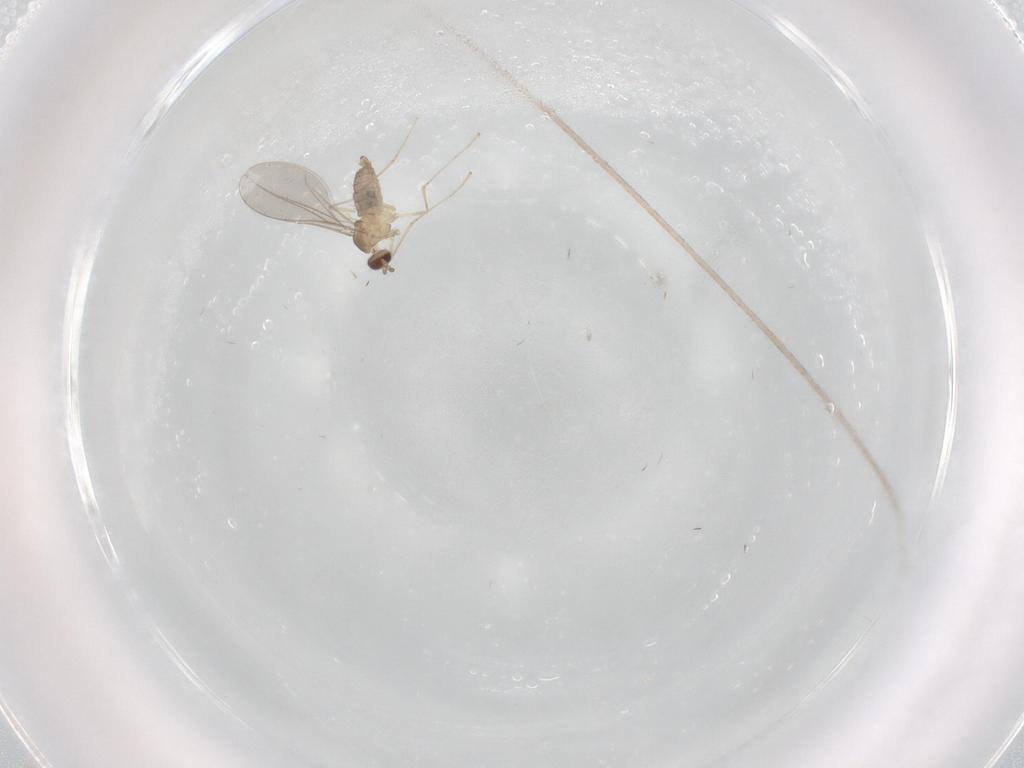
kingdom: Animalia
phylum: Arthropoda
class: Insecta
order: Diptera
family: Cecidomyiidae
